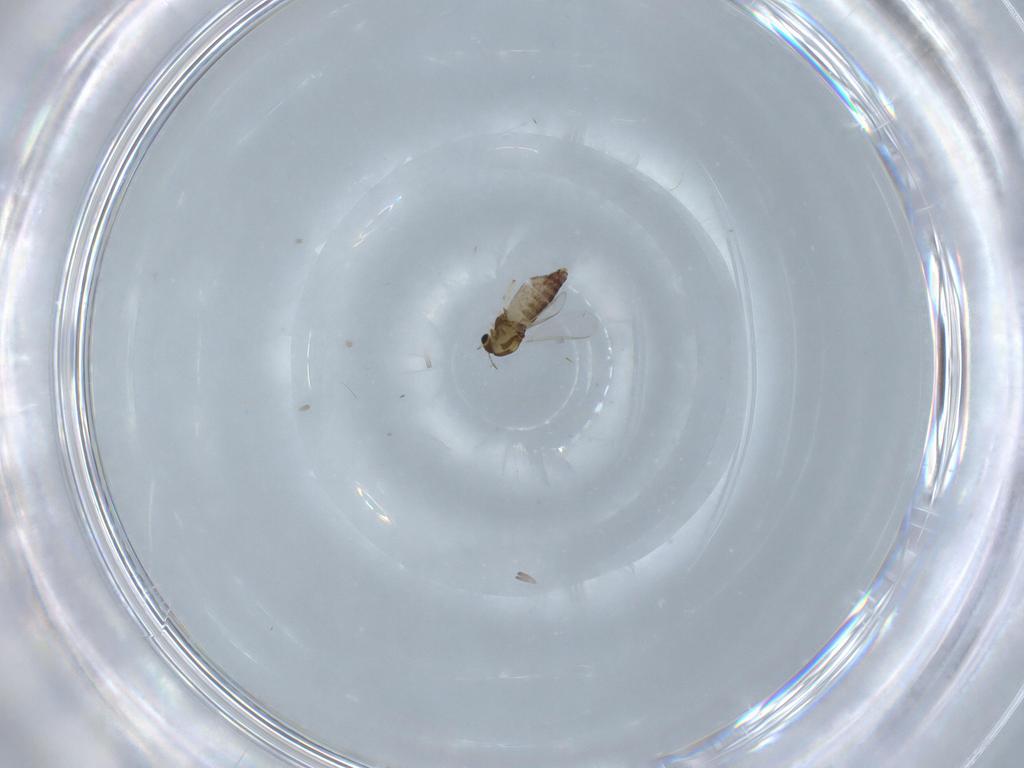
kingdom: Animalia
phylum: Arthropoda
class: Insecta
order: Diptera
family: Chironomidae
